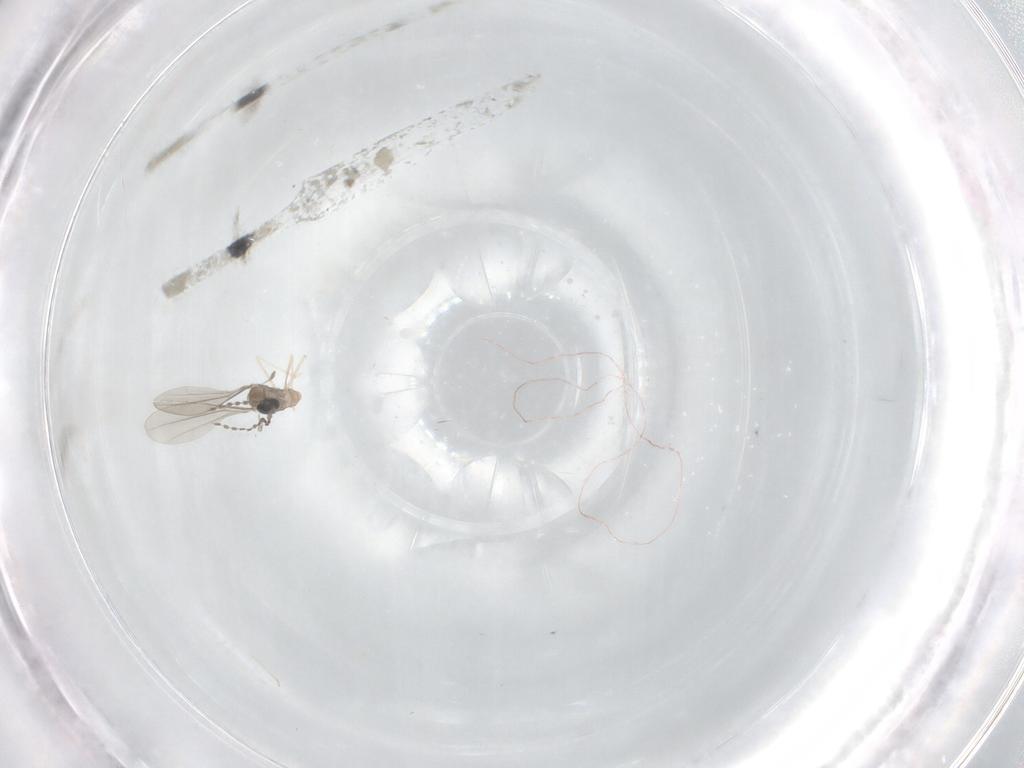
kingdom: Animalia
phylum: Arthropoda
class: Insecta
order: Diptera
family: Cecidomyiidae
